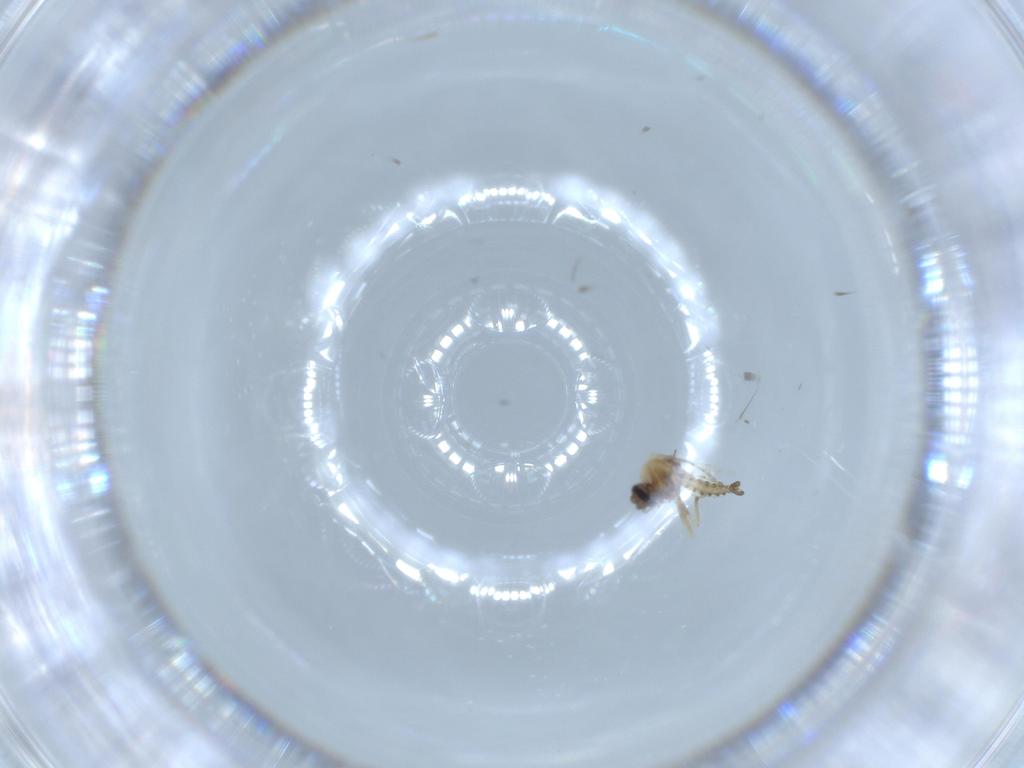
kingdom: Animalia
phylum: Arthropoda
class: Insecta
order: Diptera
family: Ceratopogonidae
